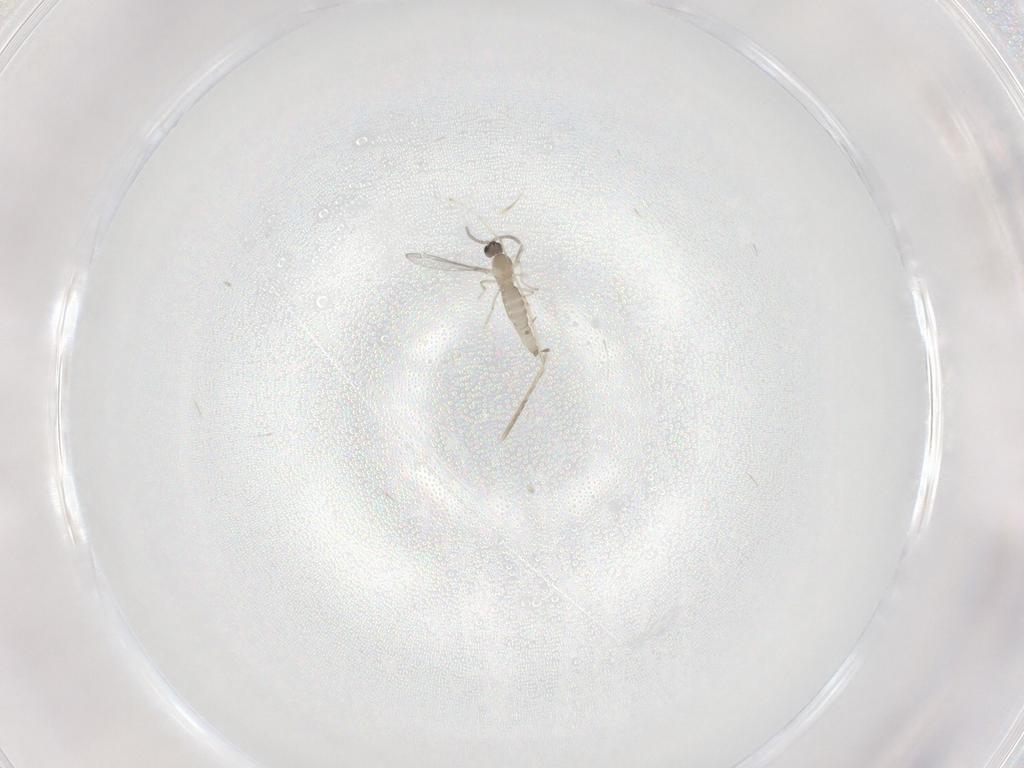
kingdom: Animalia
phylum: Arthropoda
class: Insecta
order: Diptera
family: Cecidomyiidae
